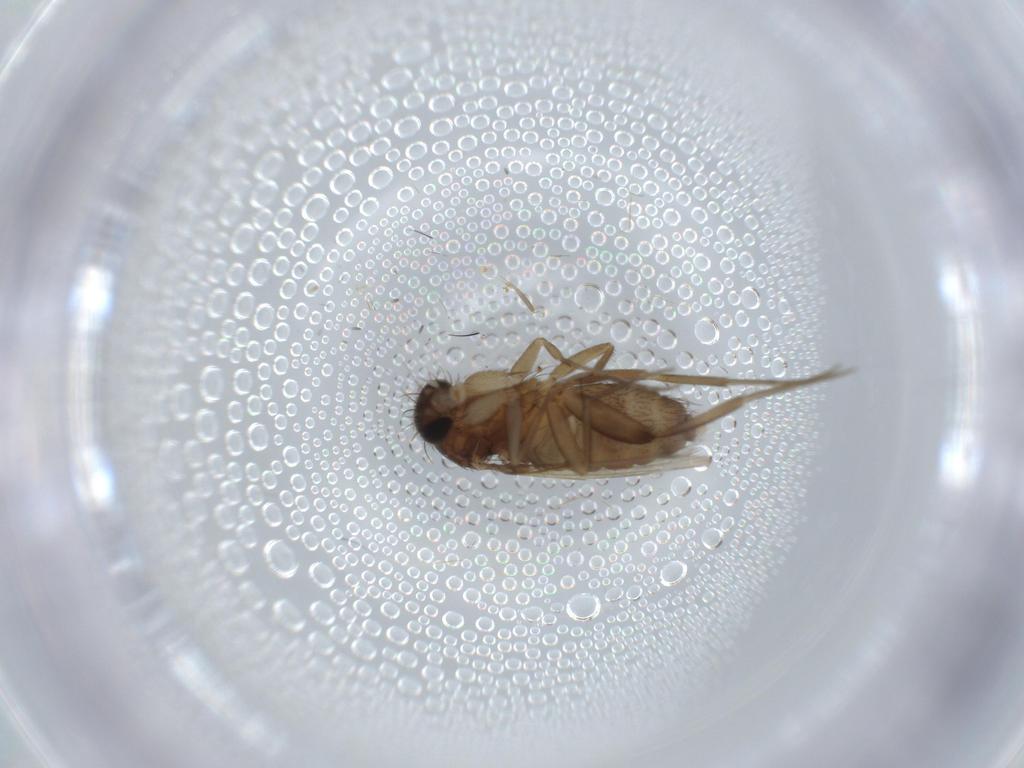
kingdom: Animalia
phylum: Arthropoda
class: Insecta
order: Diptera
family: Phoridae
